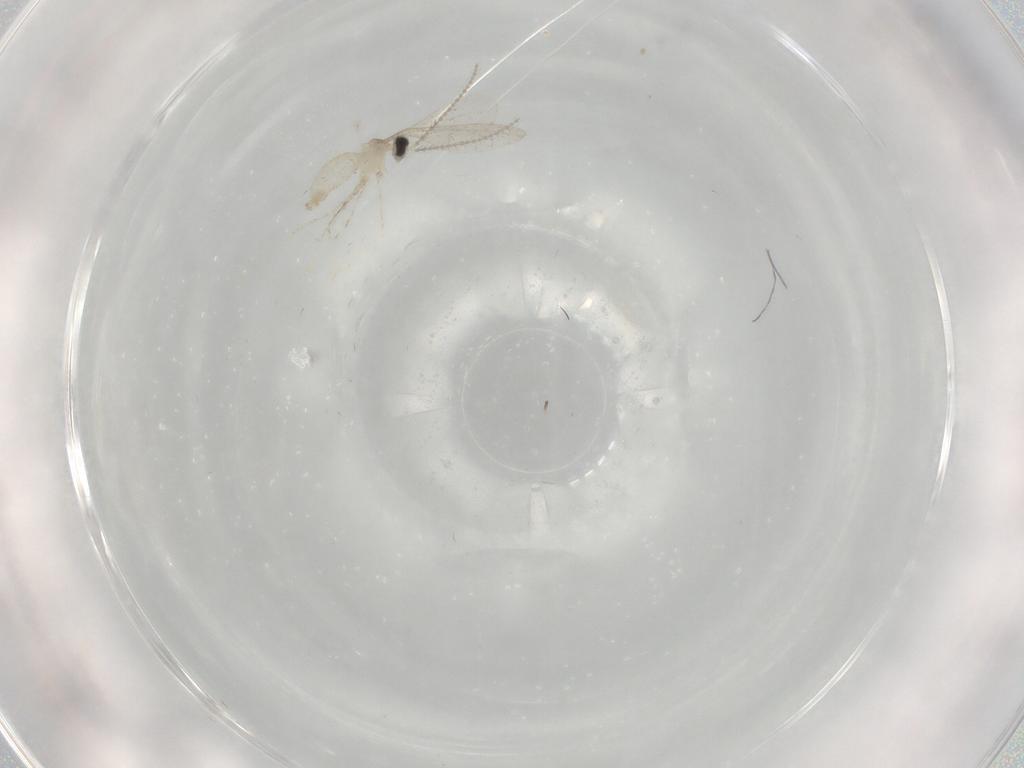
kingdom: Animalia
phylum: Arthropoda
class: Insecta
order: Diptera
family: Cecidomyiidae
